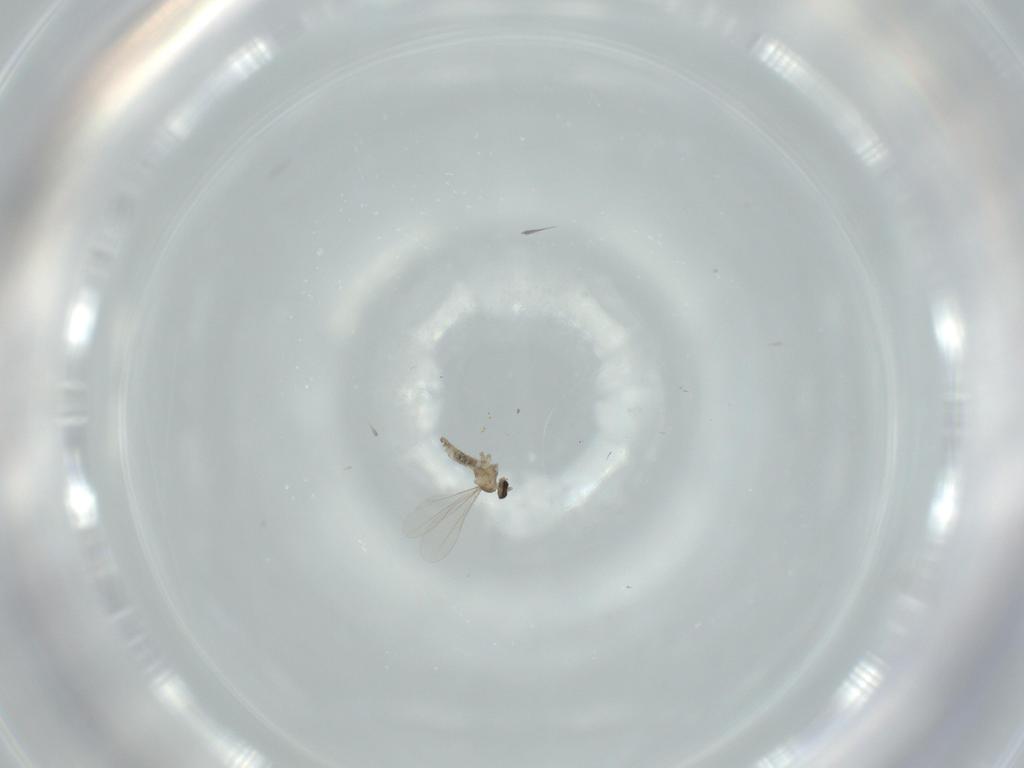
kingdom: Animalia
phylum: Arthropoda
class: Insecta
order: Diptera
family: Cecidomyiidae
